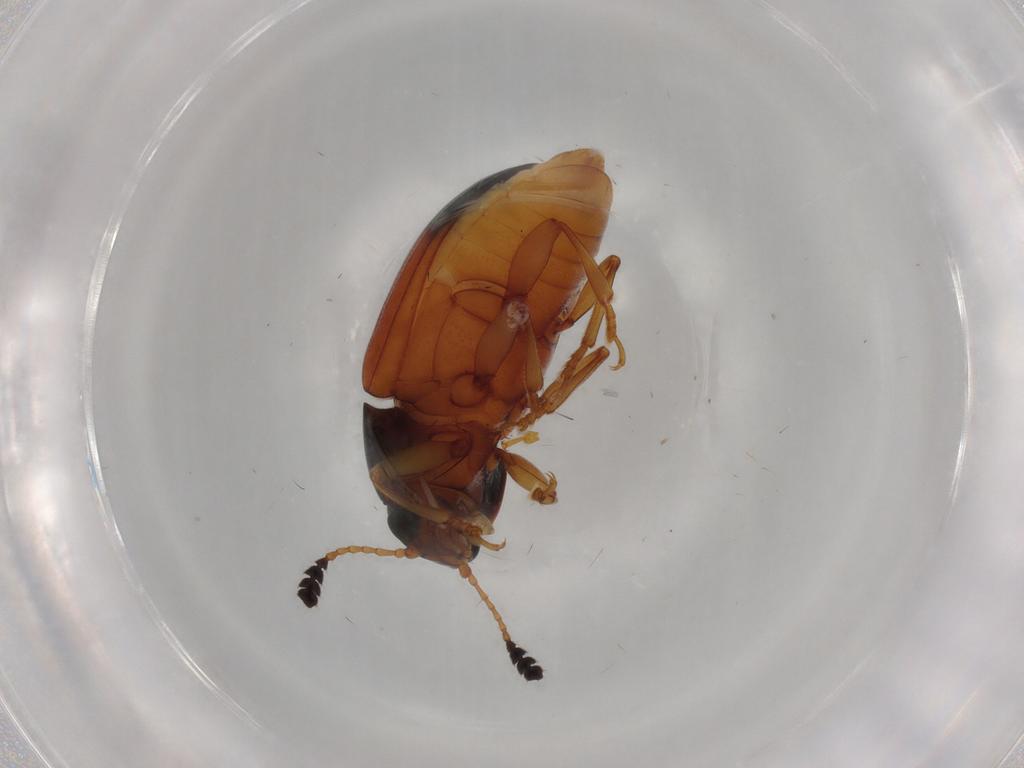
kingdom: Animalia
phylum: Arthropoda
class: Insecta
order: Coleoptera
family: Erotylidae
